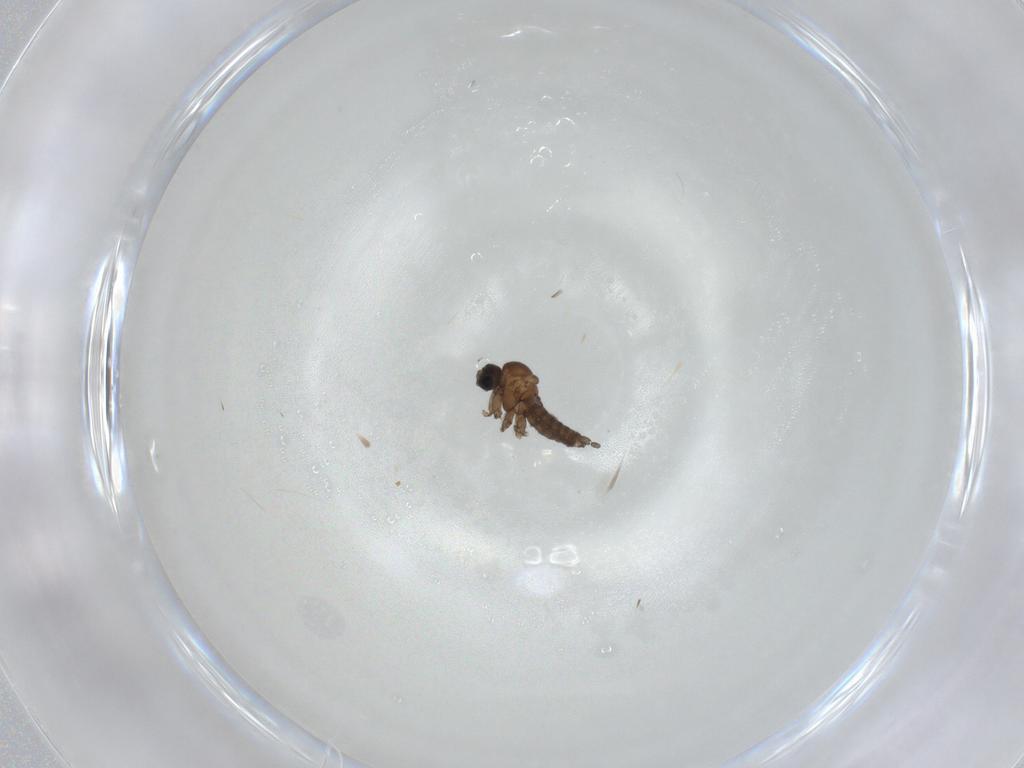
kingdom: Animalia
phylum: Arthropoda
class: Insecta
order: Diptera
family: Sciaridae
